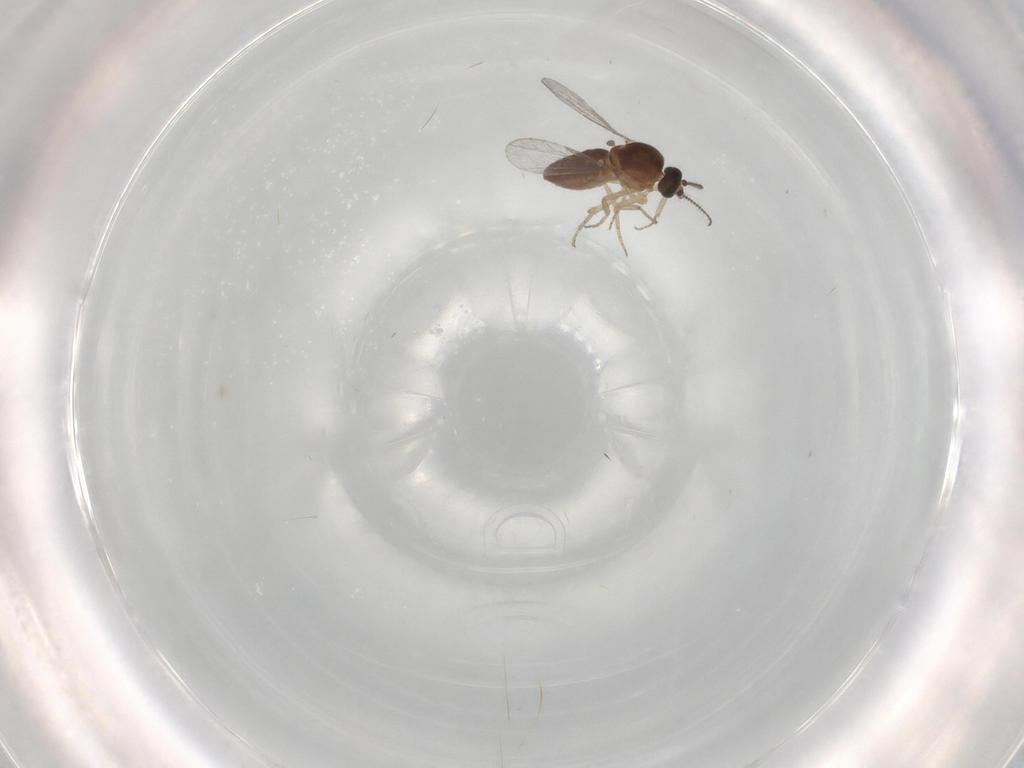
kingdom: Animalia
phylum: Arthropoda
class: Insecta
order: Diptera
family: Ceratopogonidae
